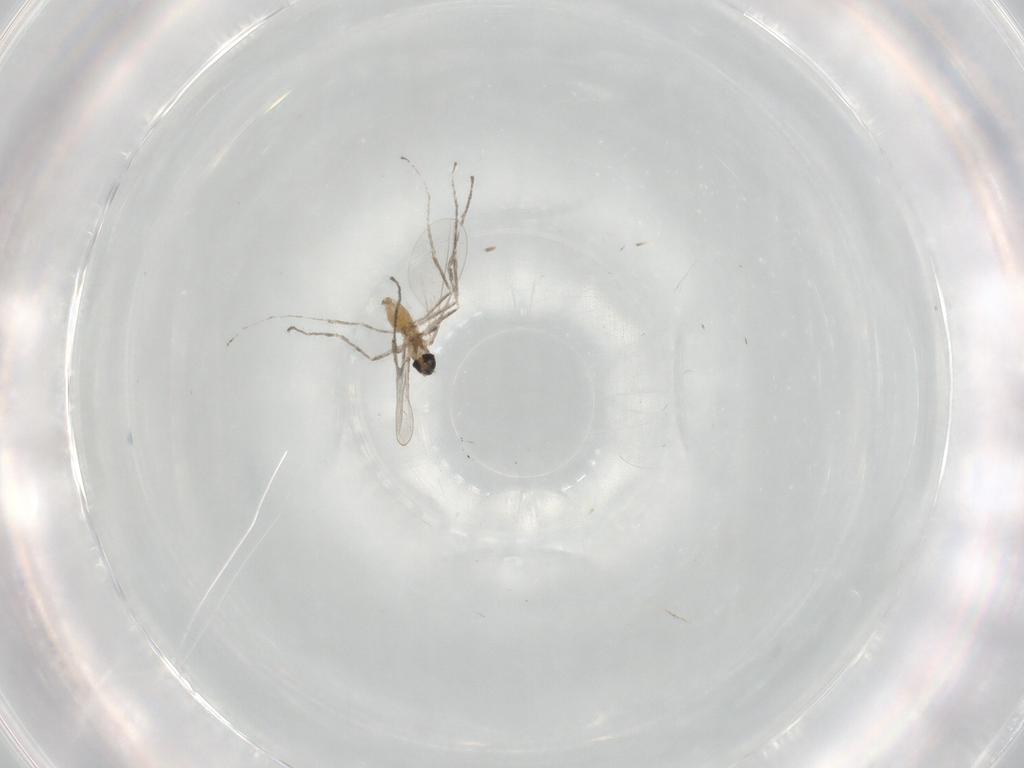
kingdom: Animalia
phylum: Arthropoda
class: Insecta
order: Diptera
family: Cecidomyiidae
